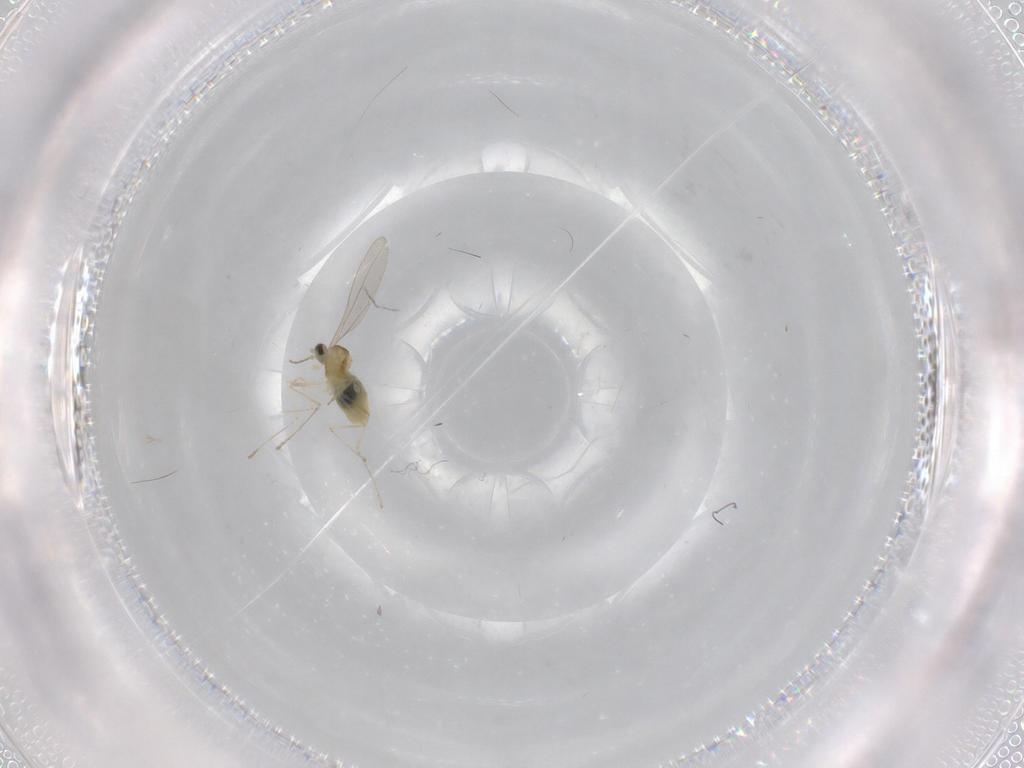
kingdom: Animalia
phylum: Arthropoda
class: Insecta
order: Diptera
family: Cecidomyiidae
